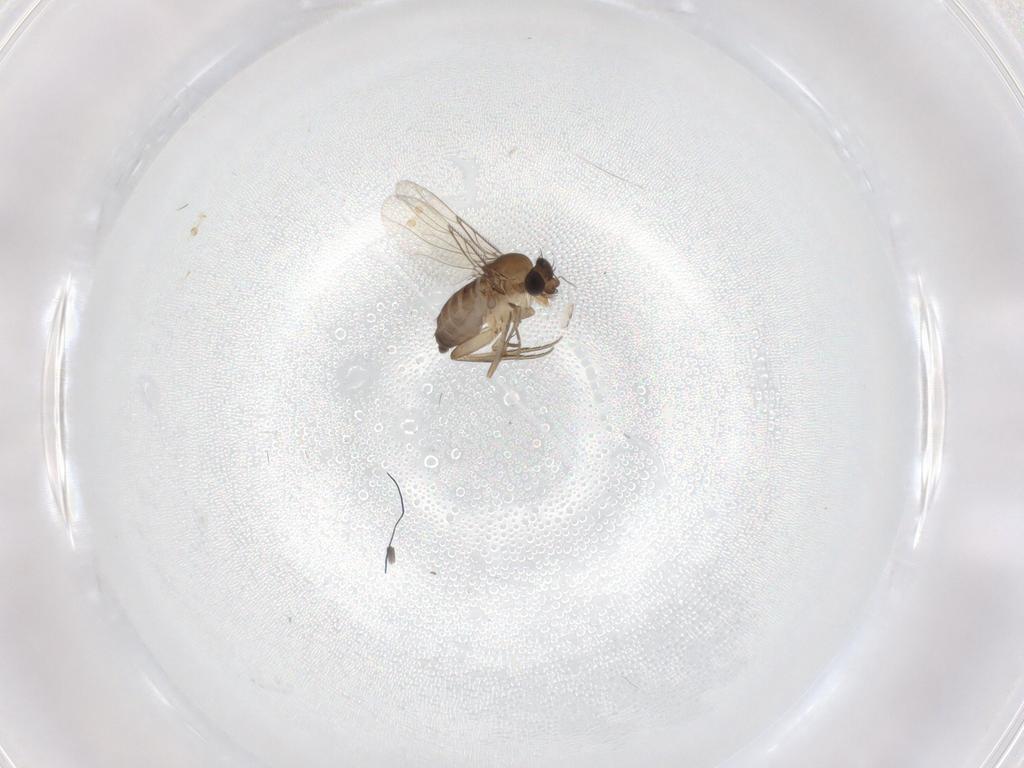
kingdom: Animalia
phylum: Arthropoda
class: Insecta
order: Diptera
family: Phoridae
